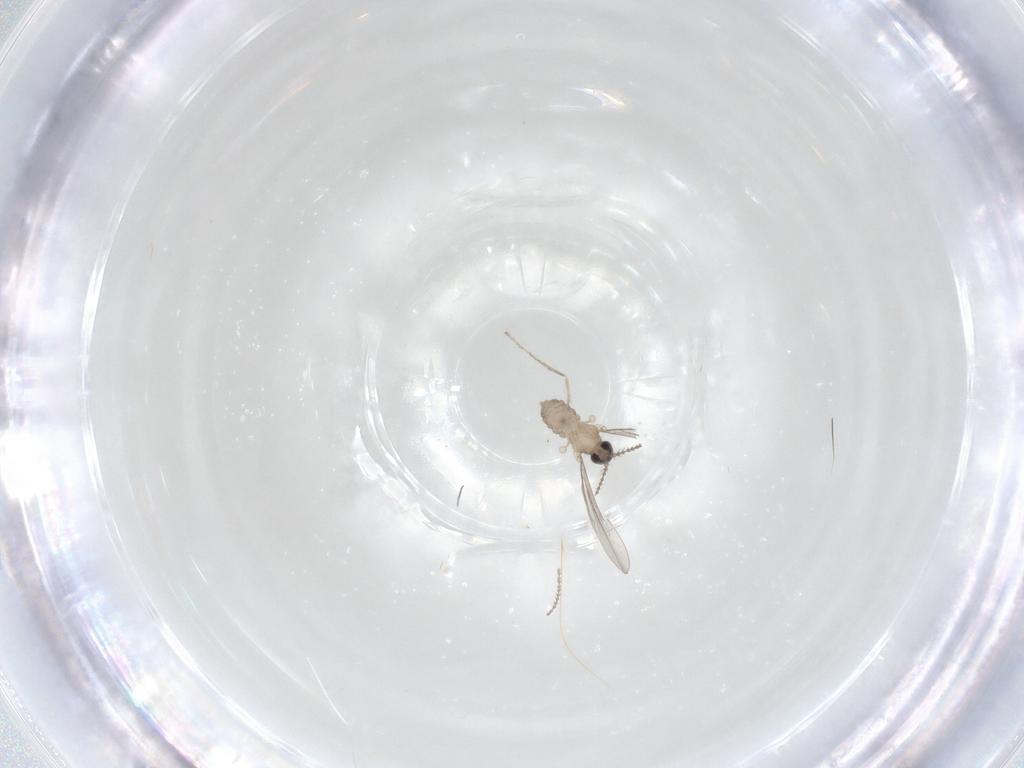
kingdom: Animalia
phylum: Arthropoda
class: Insecta
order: Diptera
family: Cecidomyiidae
